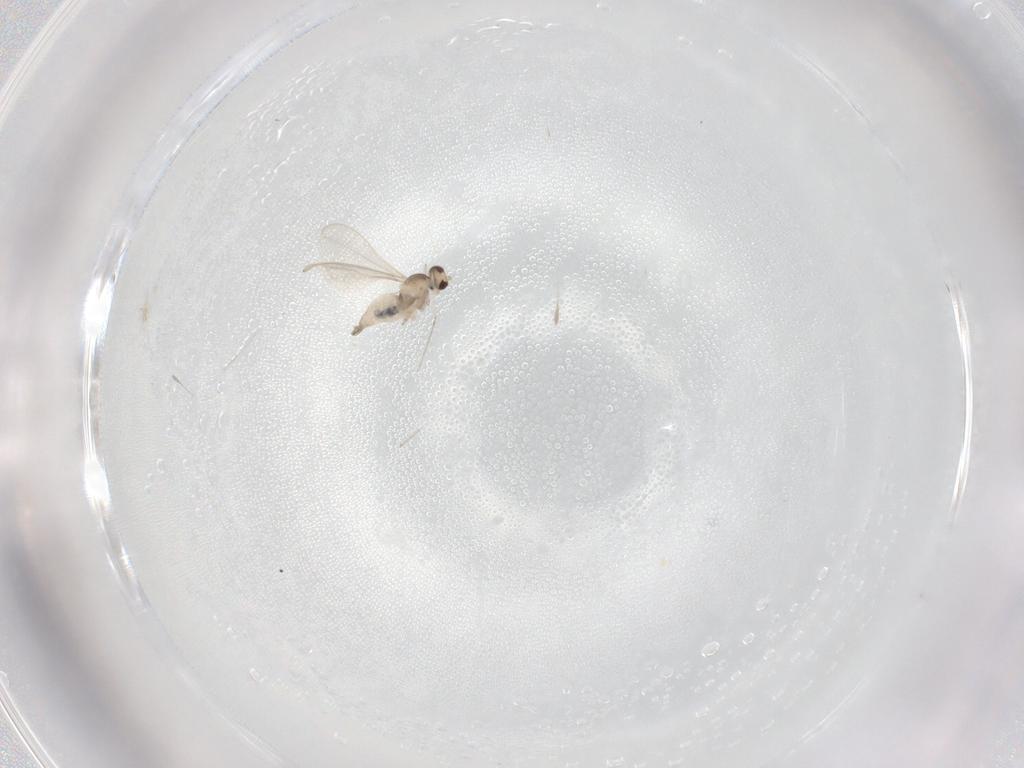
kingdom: Animalia
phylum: Arthropoda
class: Insecta
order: Diptera
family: Cecidomyiidae
